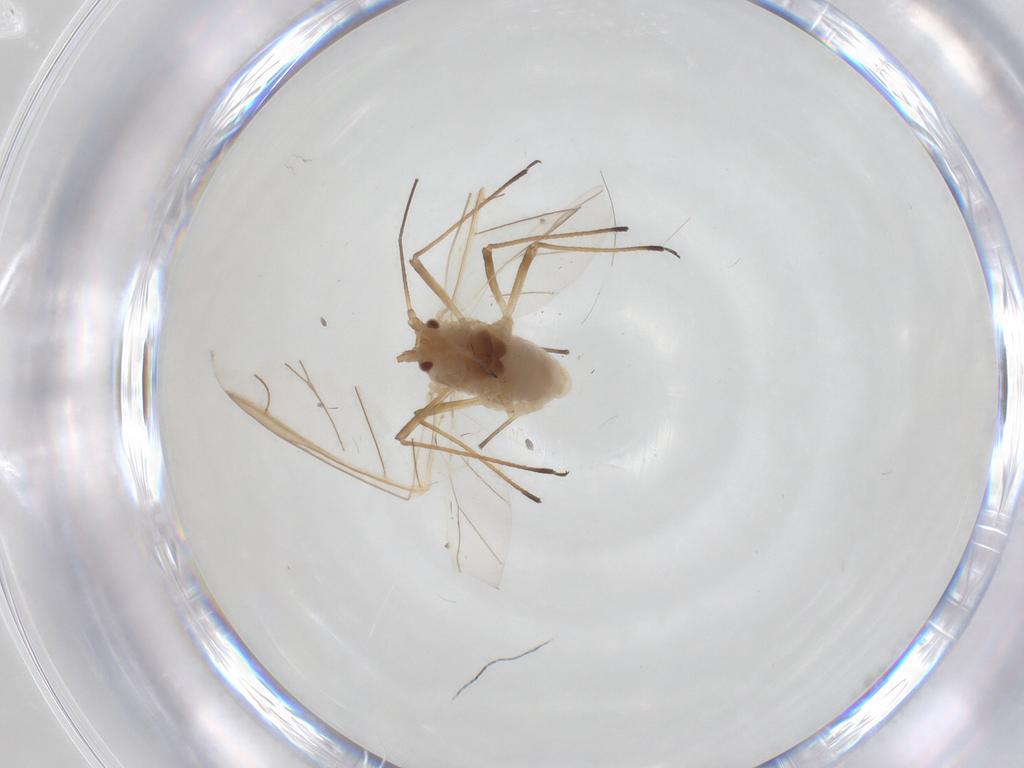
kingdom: Animalia
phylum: Arthropoda
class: Insecta
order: Hemiptera
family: Aphididae
